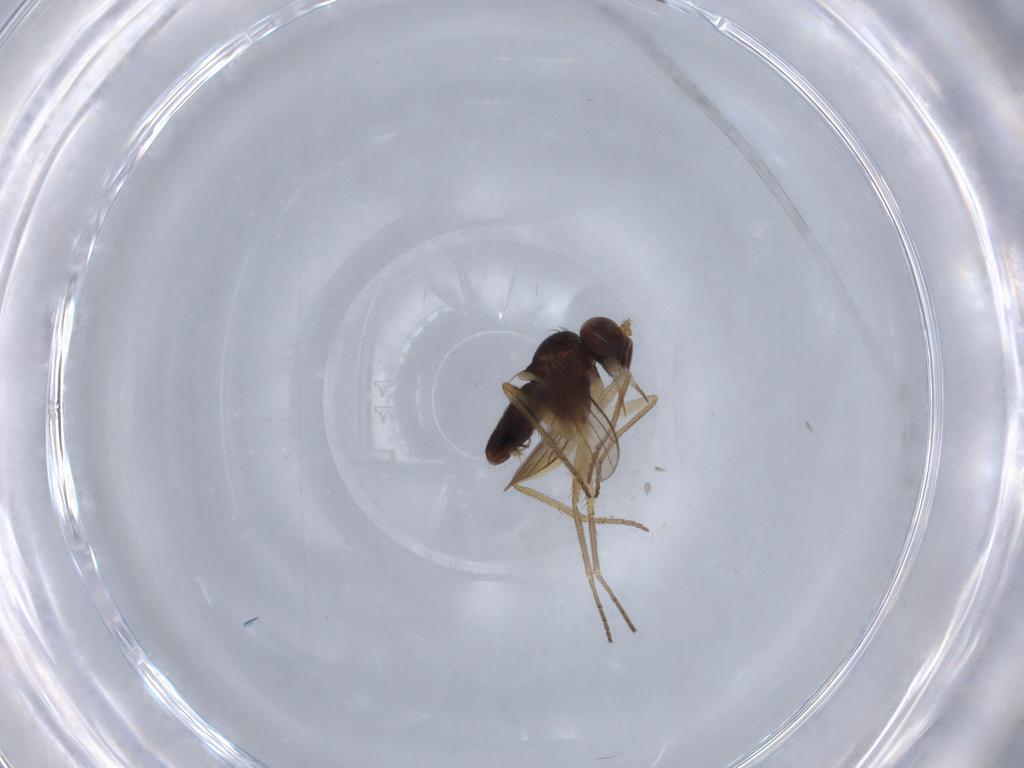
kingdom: Animalia
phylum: Arthropoda
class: Insecta
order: Diptera
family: Dolichopodidae
